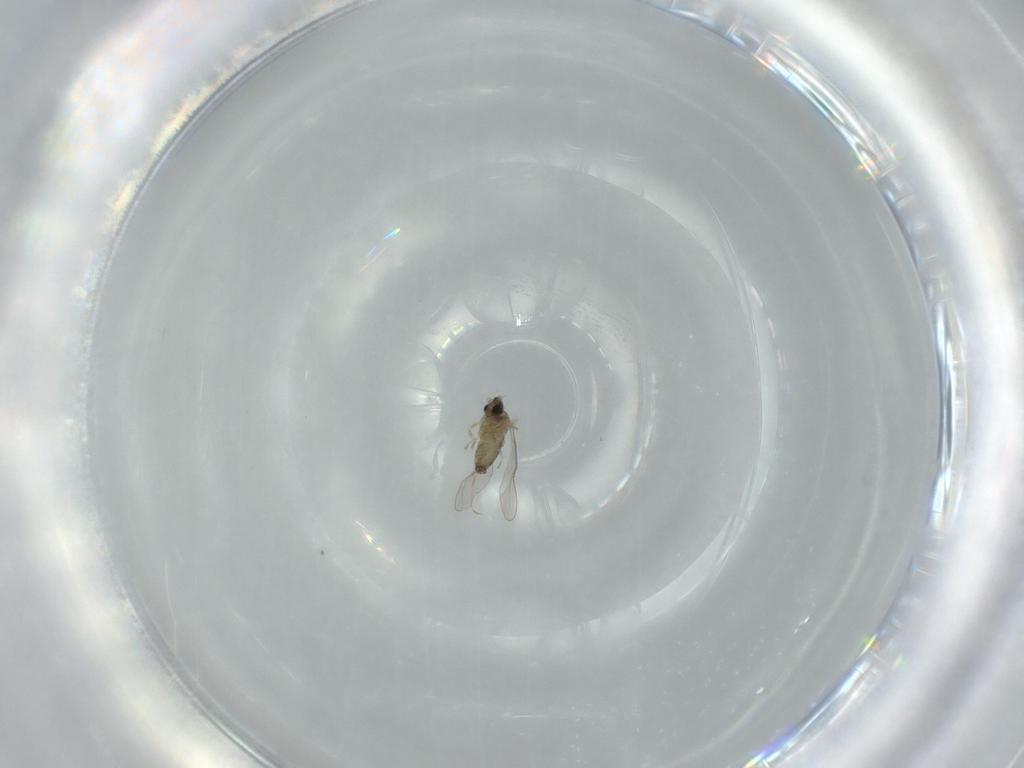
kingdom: Animalia
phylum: Arthropoda
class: Insecta
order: Diptera
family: Cecidomyiidae
